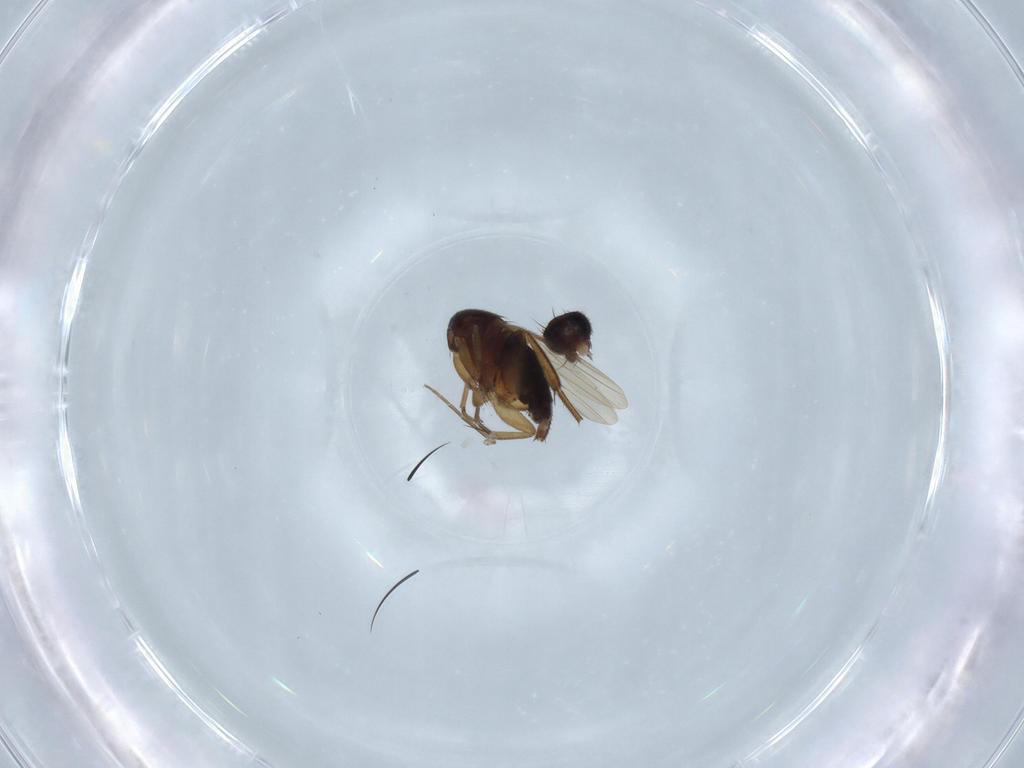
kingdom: Animalia
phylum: Arthropoda
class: Insecta
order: Diptera
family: Phoridae
